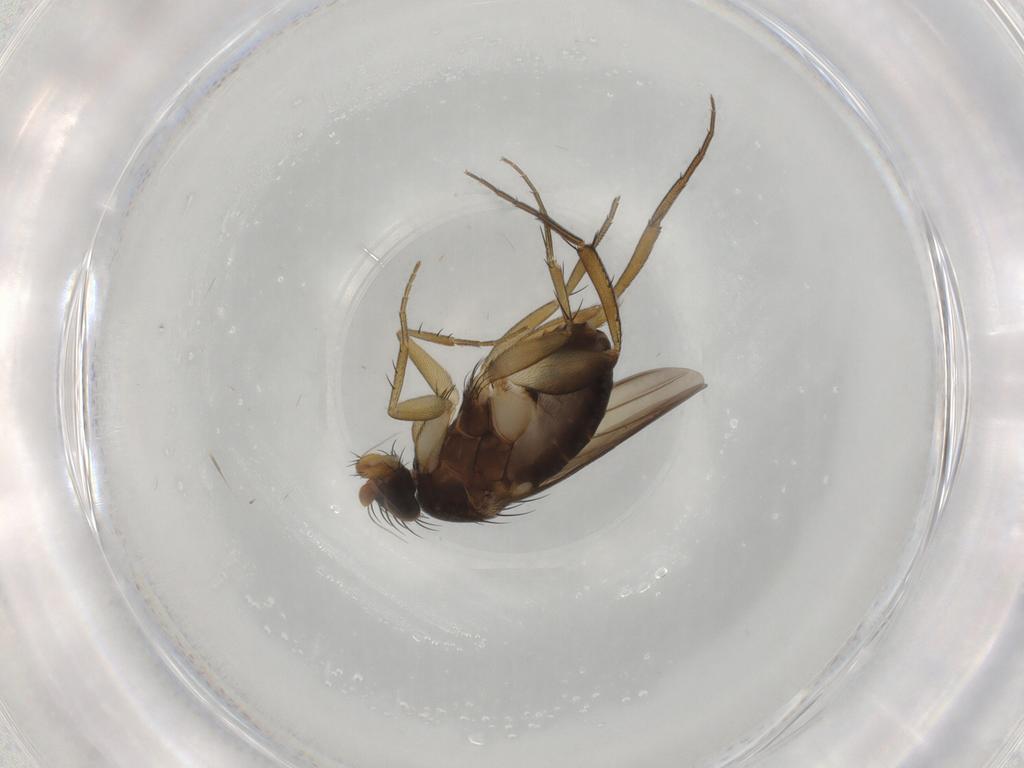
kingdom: Animalia
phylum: Arthropoda
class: Insecta
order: Diptera
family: Phoridae
